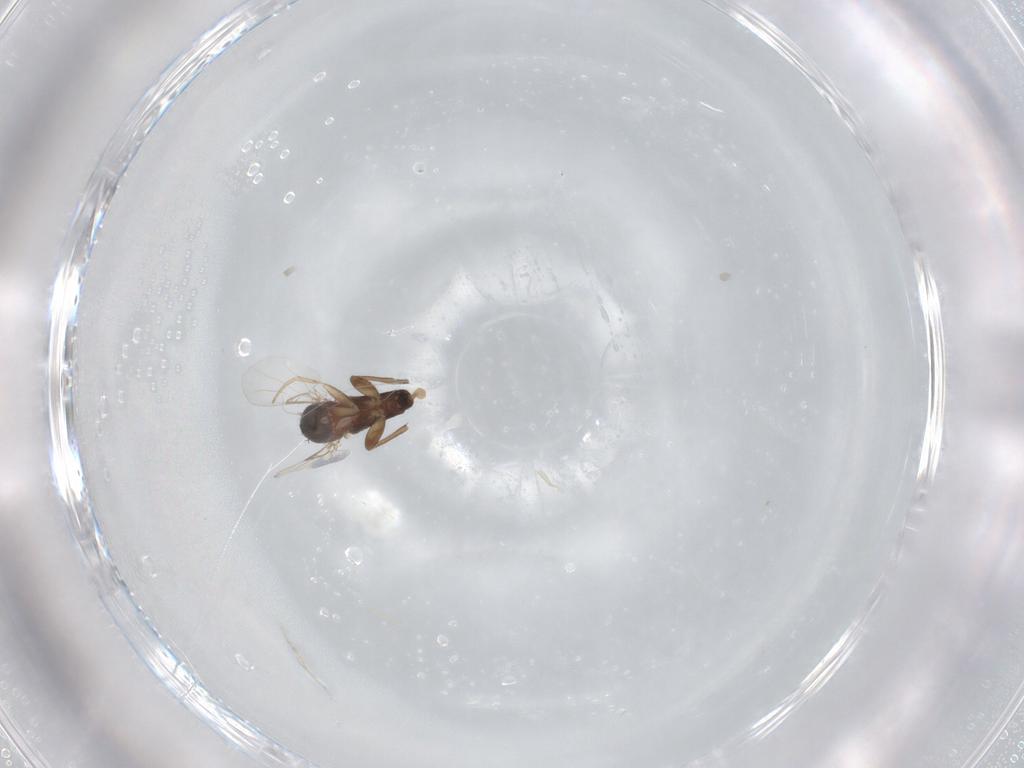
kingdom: Animalia
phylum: Arthropoda
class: Insecta
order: Diptera
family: Phoridae
